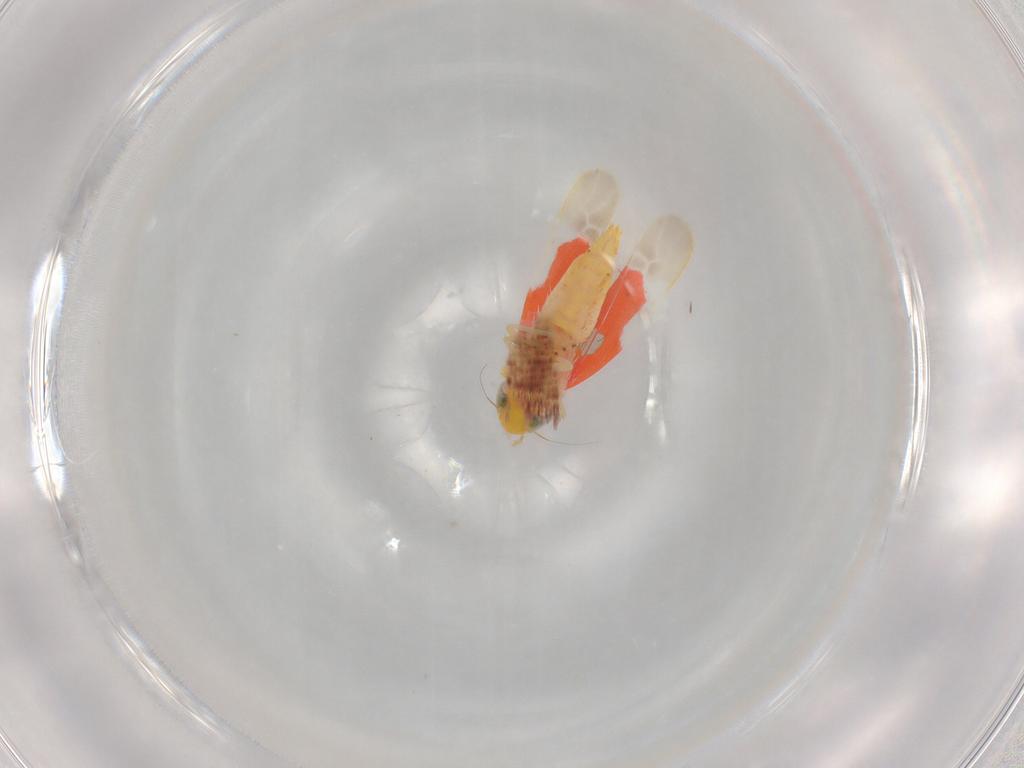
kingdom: Animalia
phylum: Arthropoda
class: Insecta
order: Hemiptera
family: Cicadellidae
